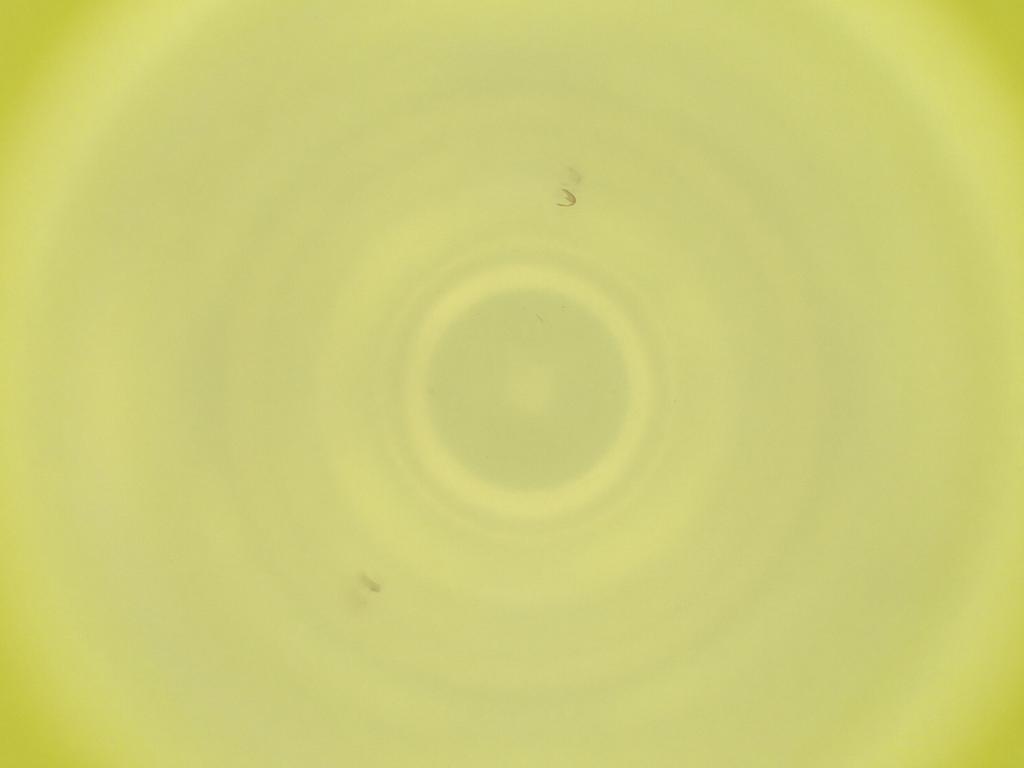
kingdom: Animalia
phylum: Arthropoda
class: Insecta
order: Diptera
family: Cecidomyiidae
